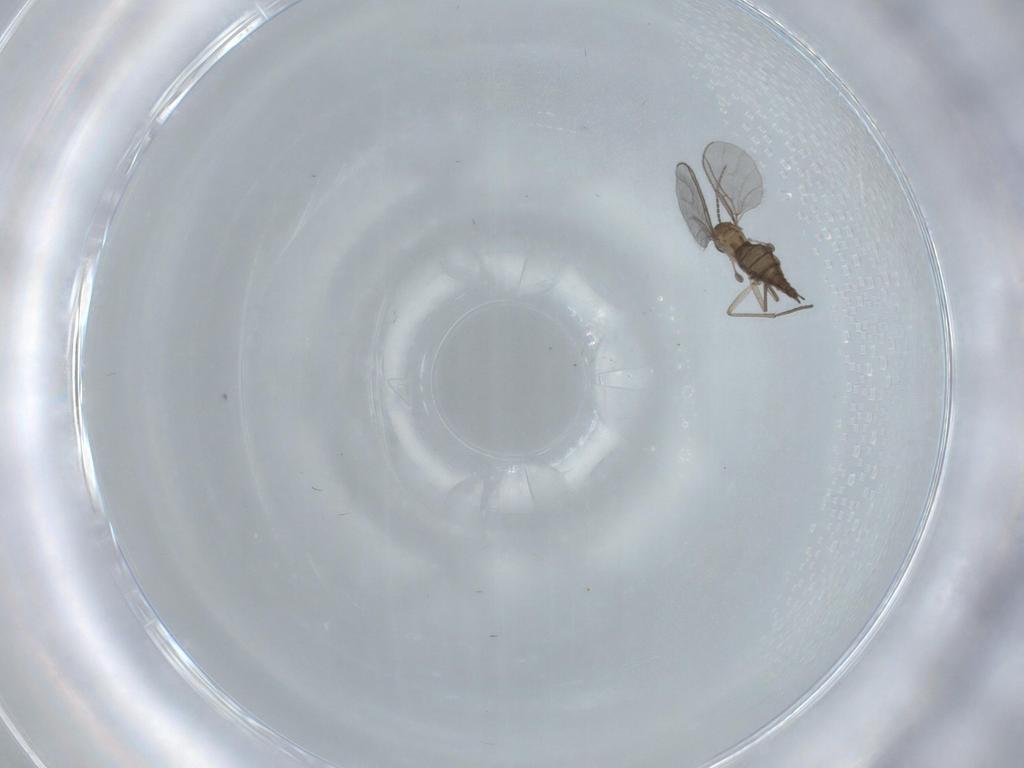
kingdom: Animalia
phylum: Arthropoda
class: Insecta
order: Diptera
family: Sciaridae
